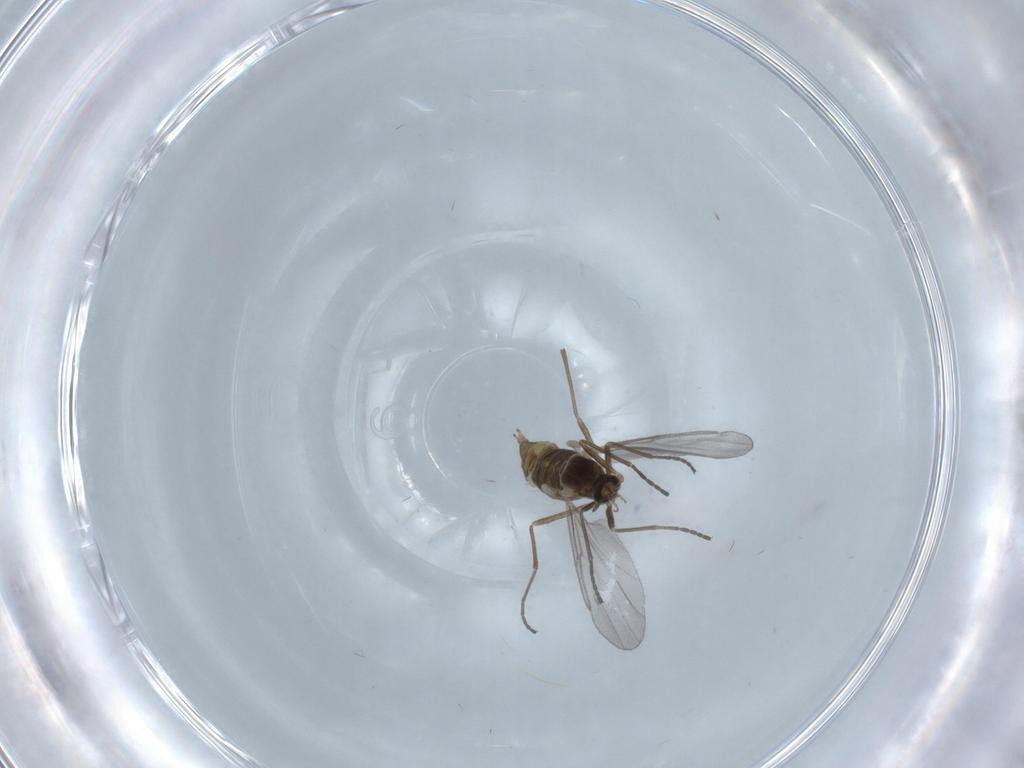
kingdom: Animalia
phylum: Arthropoda
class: Insecta
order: Diptera
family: Cecidomyiidae
